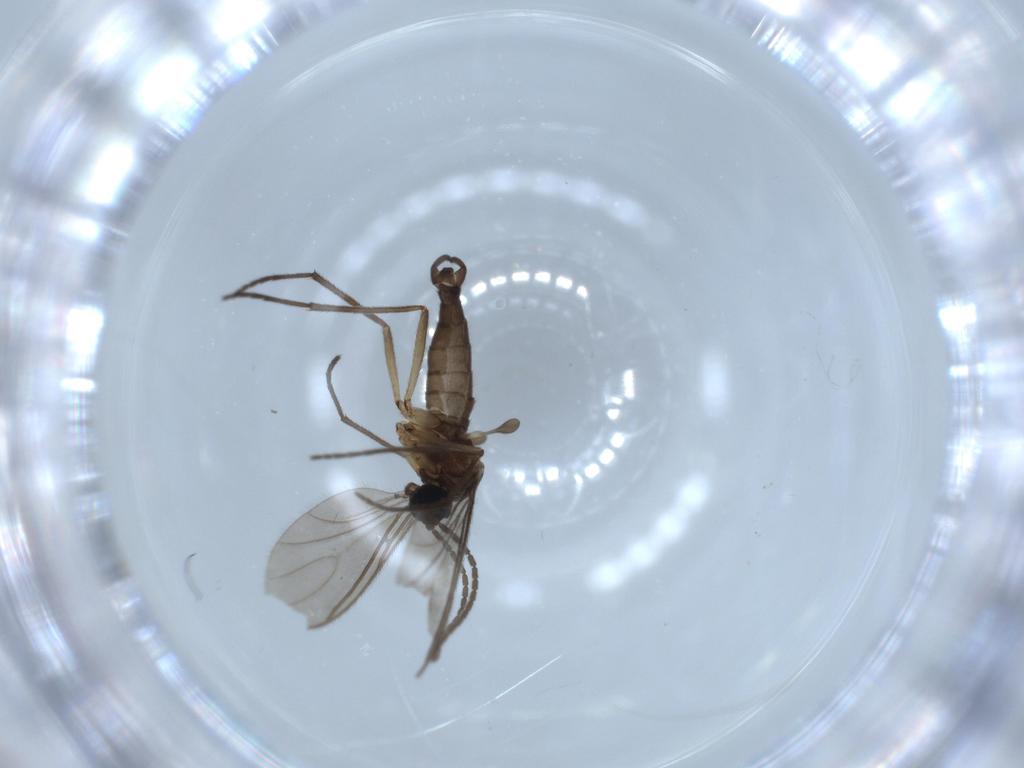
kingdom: Animalia
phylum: Arthropoda
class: Insecta
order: Diptera
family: Sciaridae
